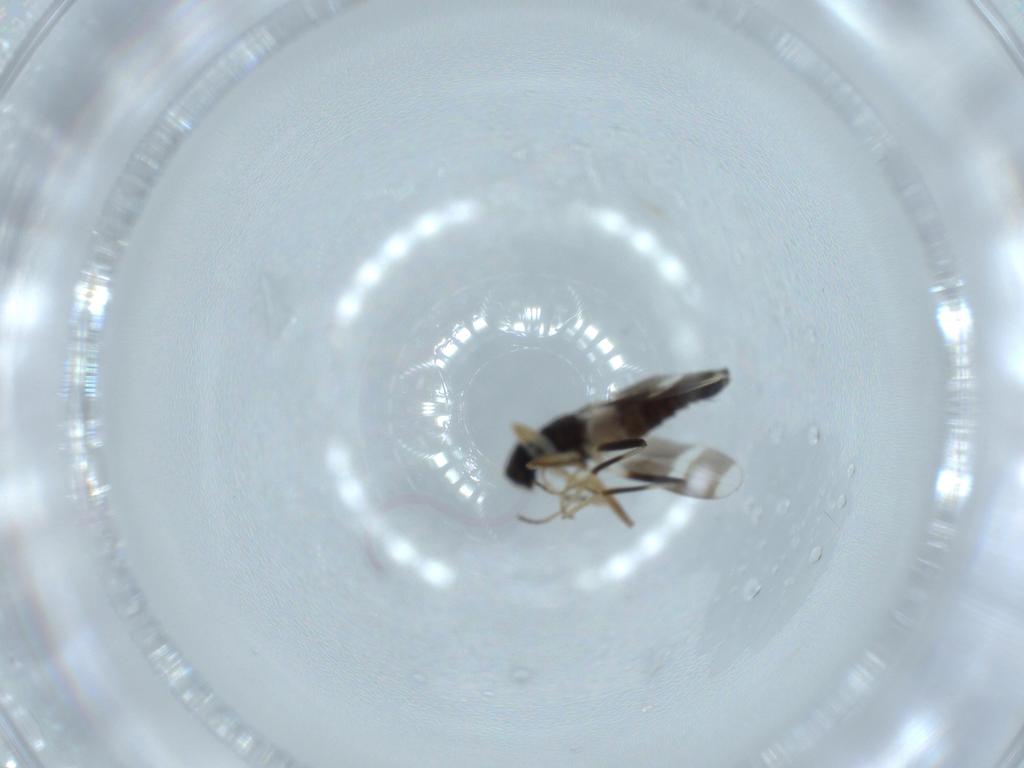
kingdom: Animalia
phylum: Arthropoda
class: Insecta
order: Diptera
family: Hybotidae
